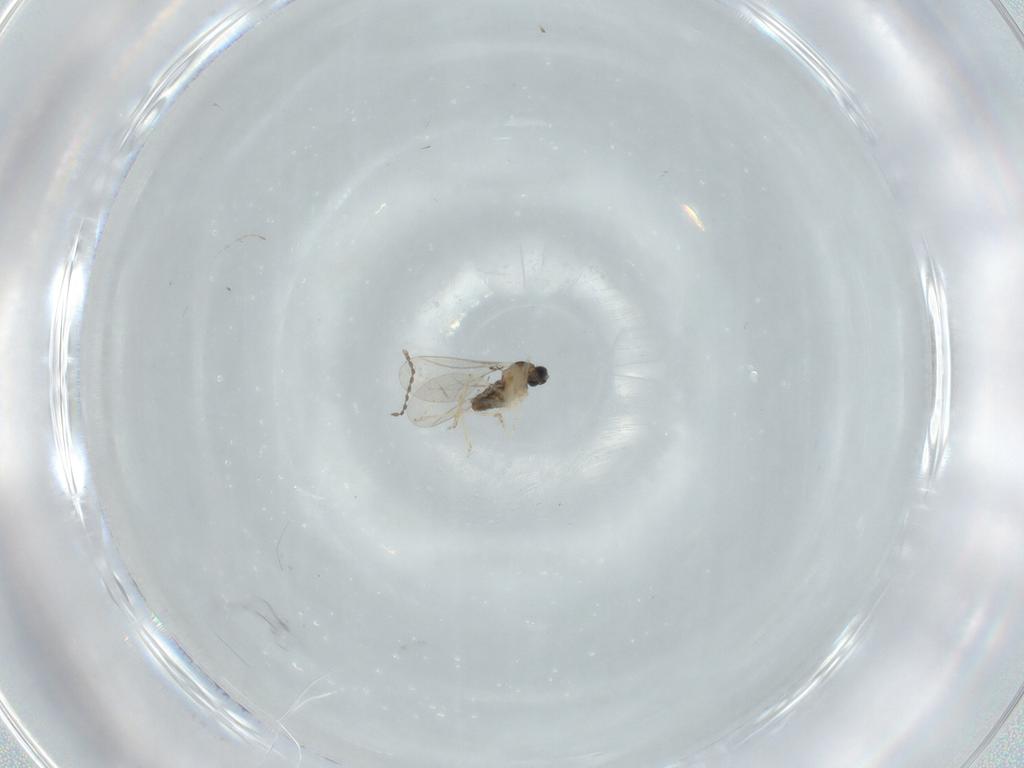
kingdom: Animalia
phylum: Arthropoda
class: Insecta
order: Diptera
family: Cecidomyiidae
